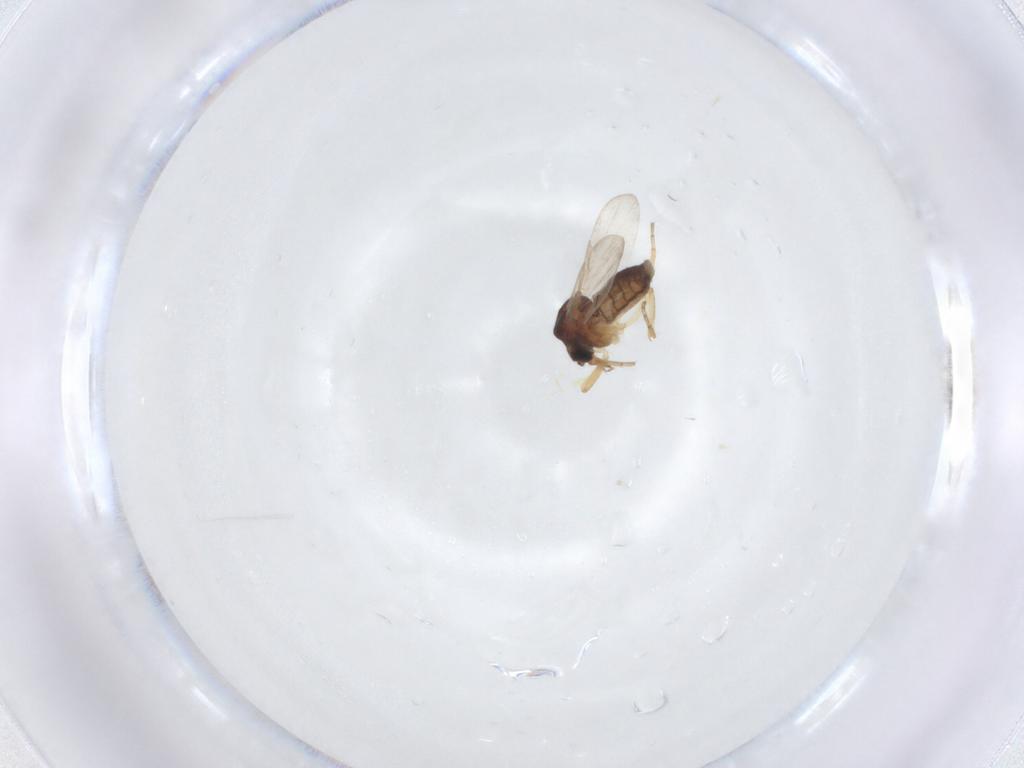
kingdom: Animalia
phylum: Arthropoda
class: Insecta
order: Diptera
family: Ceratopogonidae
